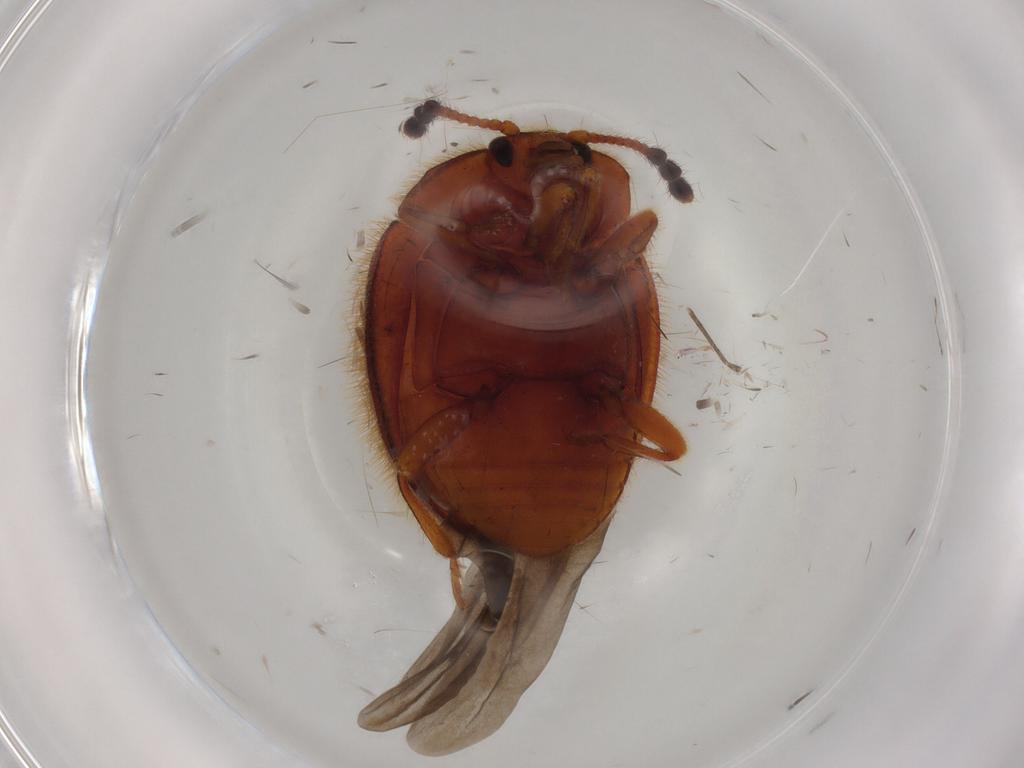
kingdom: Animalia
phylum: Arthropoda
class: Insecta
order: Coleoptera
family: Endomychidae
